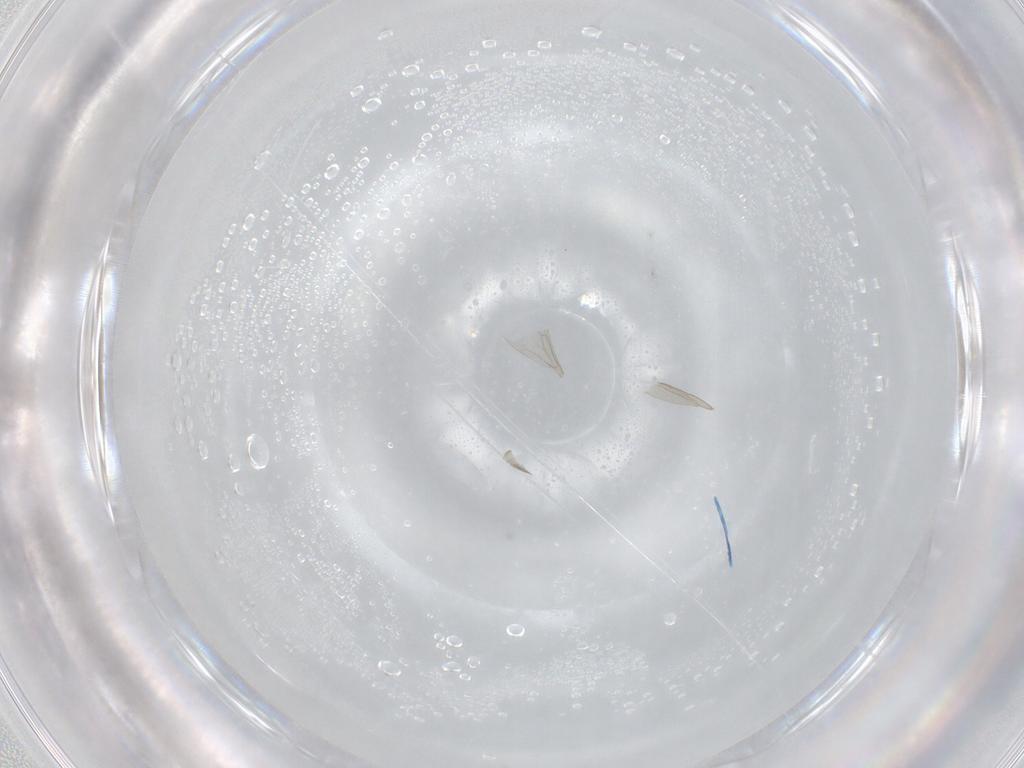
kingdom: Animalia
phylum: Arthropoda
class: Insecta
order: Diptera
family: Cecidomyiidae
